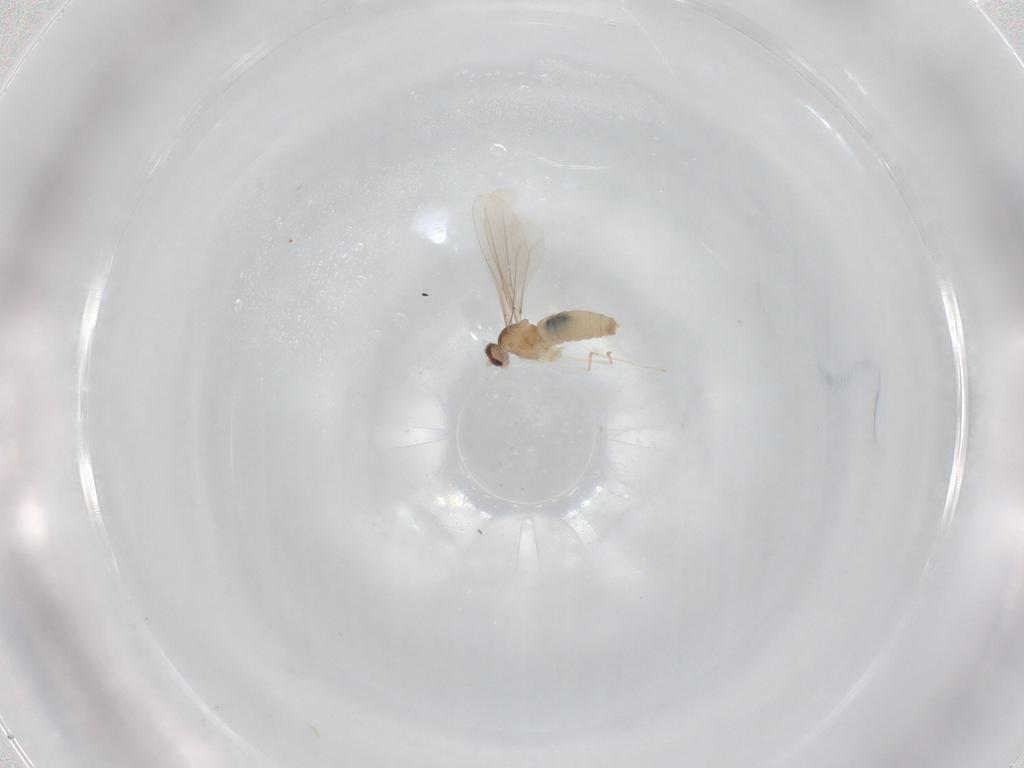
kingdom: Animalia
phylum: Arthropoda
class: Insecta
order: Diptera
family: Cecidomyiidae
